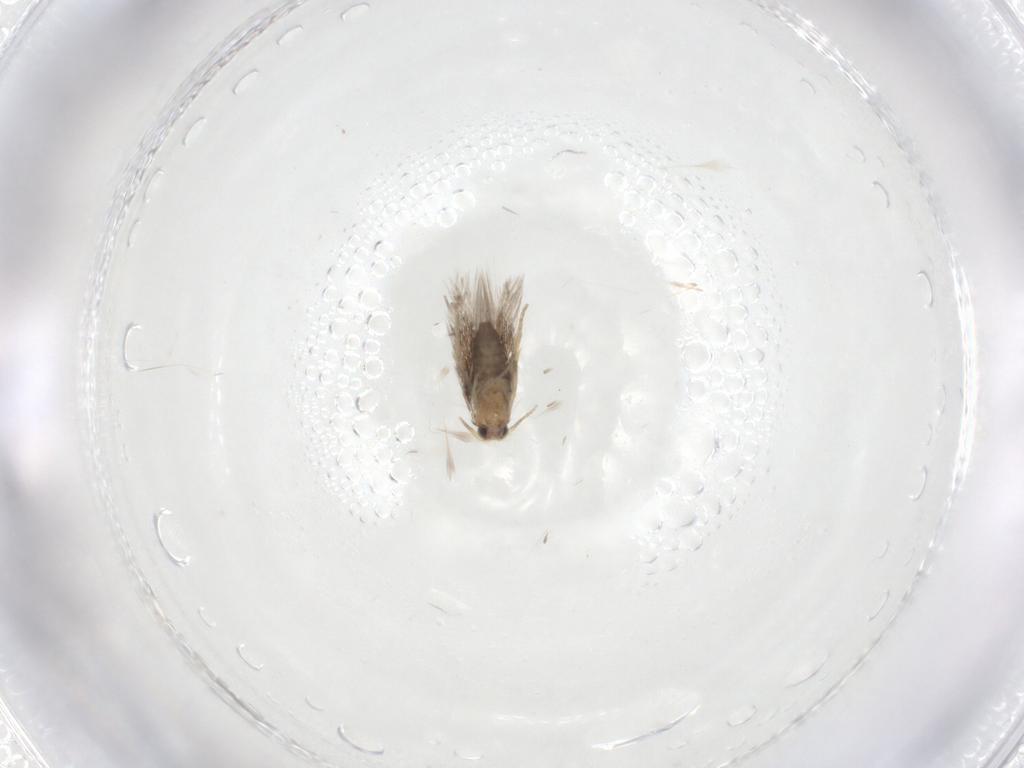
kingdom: Animalia
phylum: Arthropoda
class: Insecta
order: Lepidoptera
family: Nepticulidae
